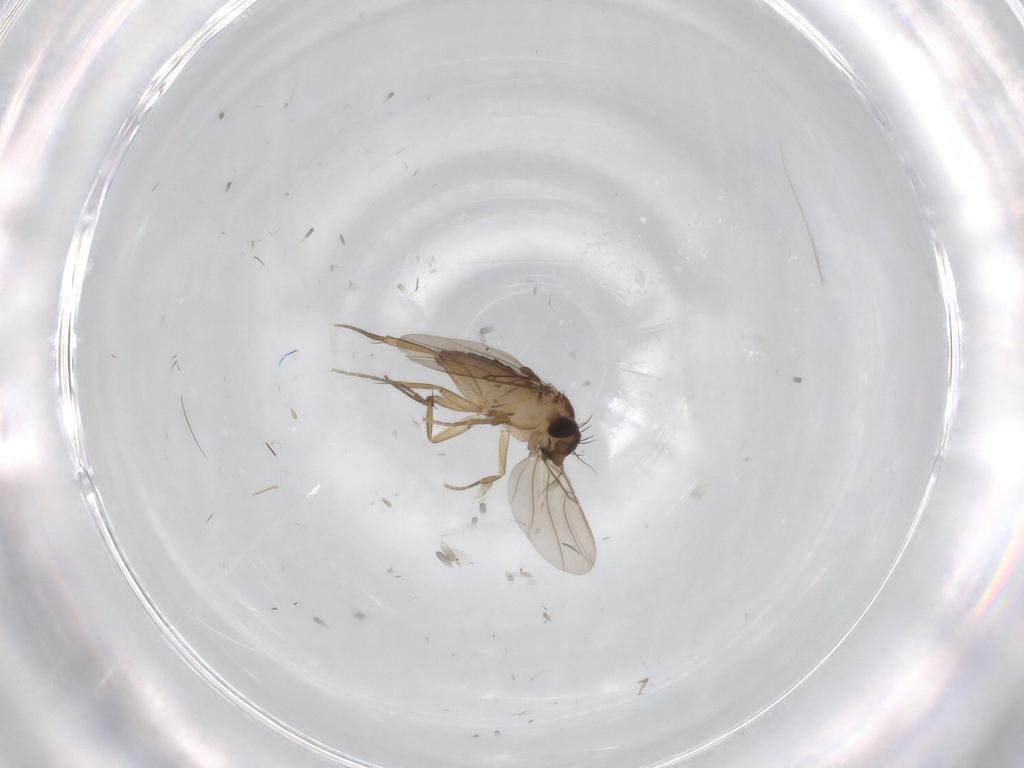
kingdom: Animalia
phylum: Arthropoda
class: Insecta
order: Diptera
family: Phoridae
